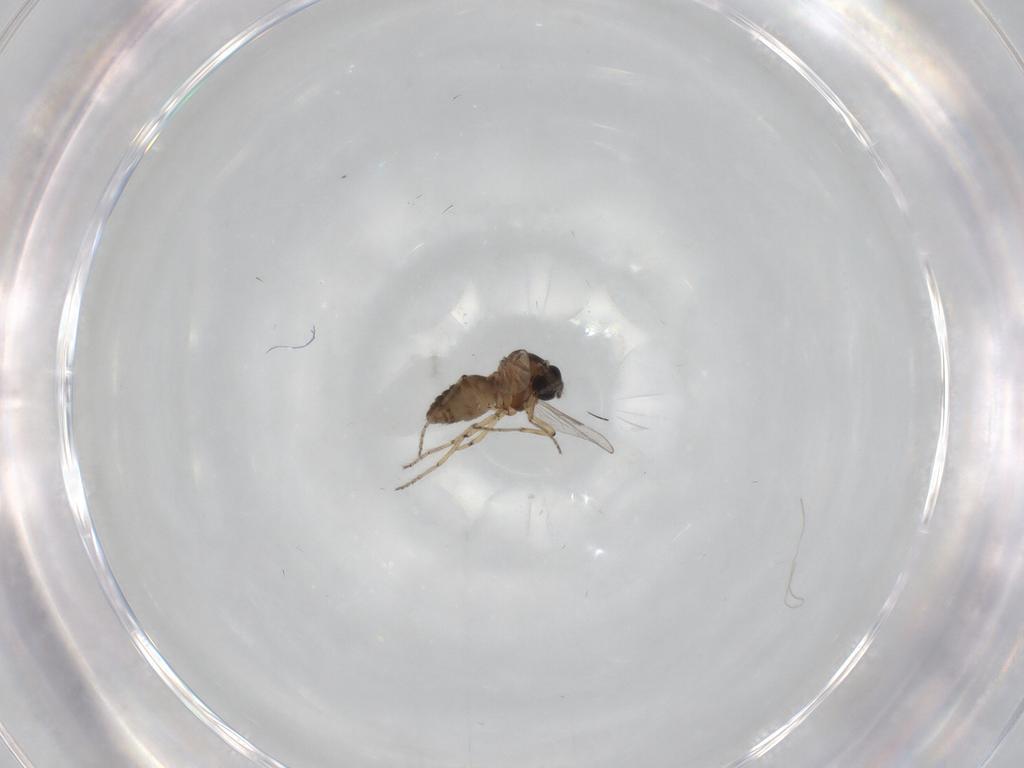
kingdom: Animalia
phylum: Arthropoda
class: Insecta
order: Diptera
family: Ceratopogonidae
